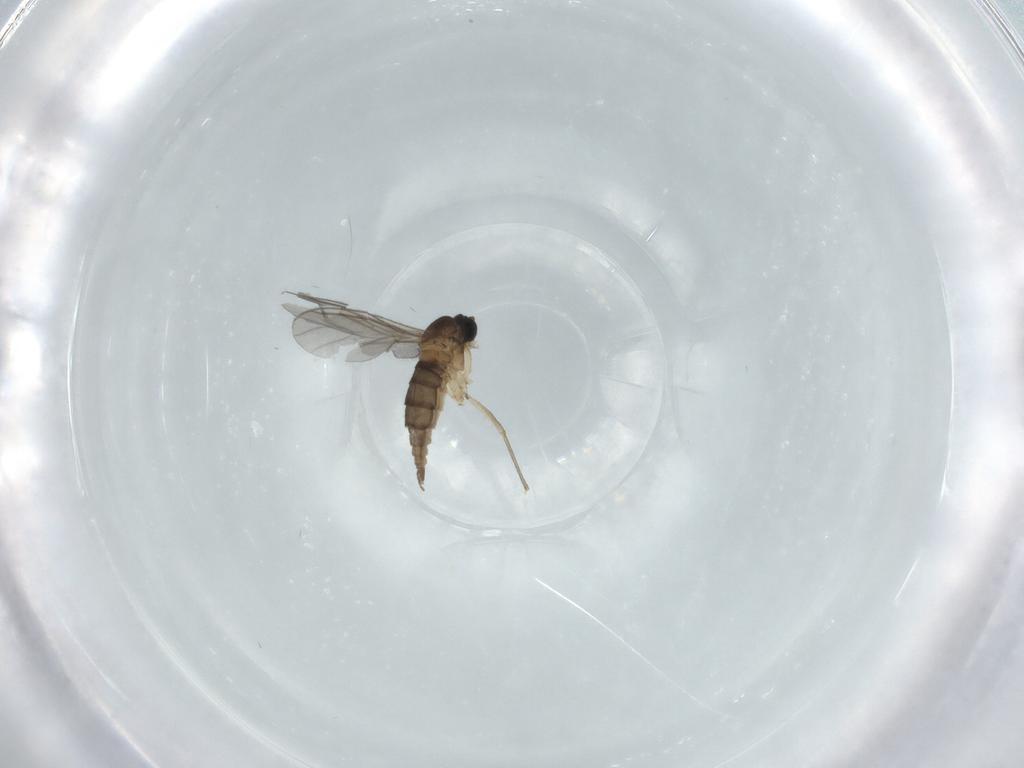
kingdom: Animalia
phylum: Arthropoda
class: Insecta
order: Diptera
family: Sciaridae
